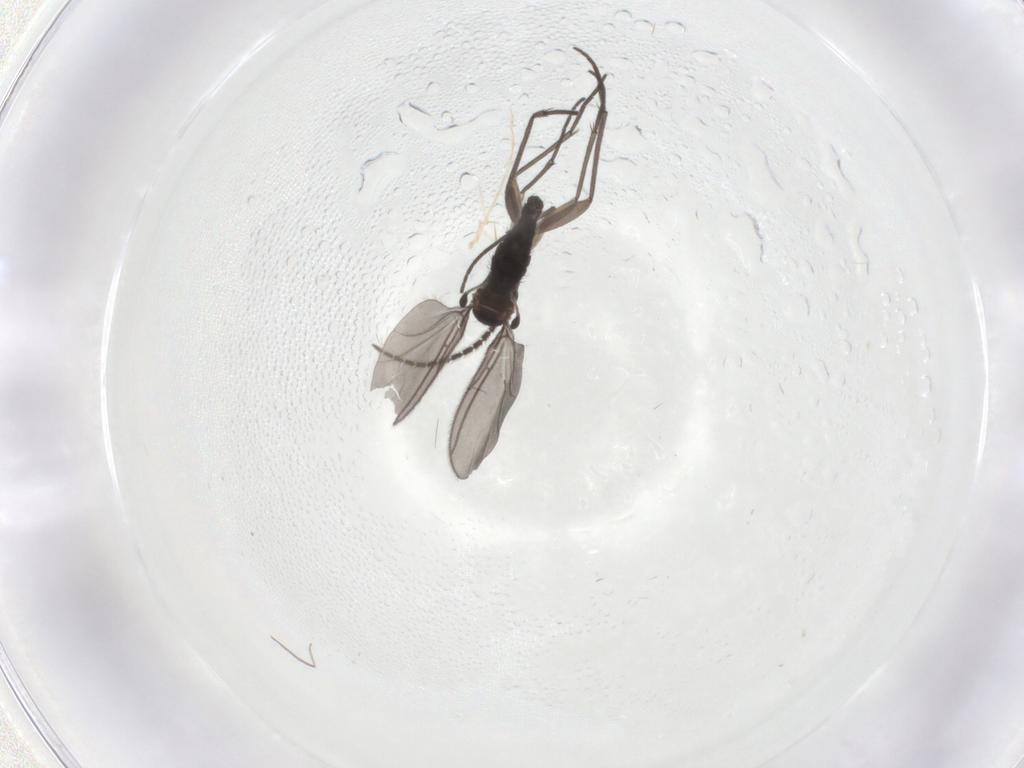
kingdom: Animalia
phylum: Arthropoda
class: Insecta
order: Diptera
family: Sciaridae
